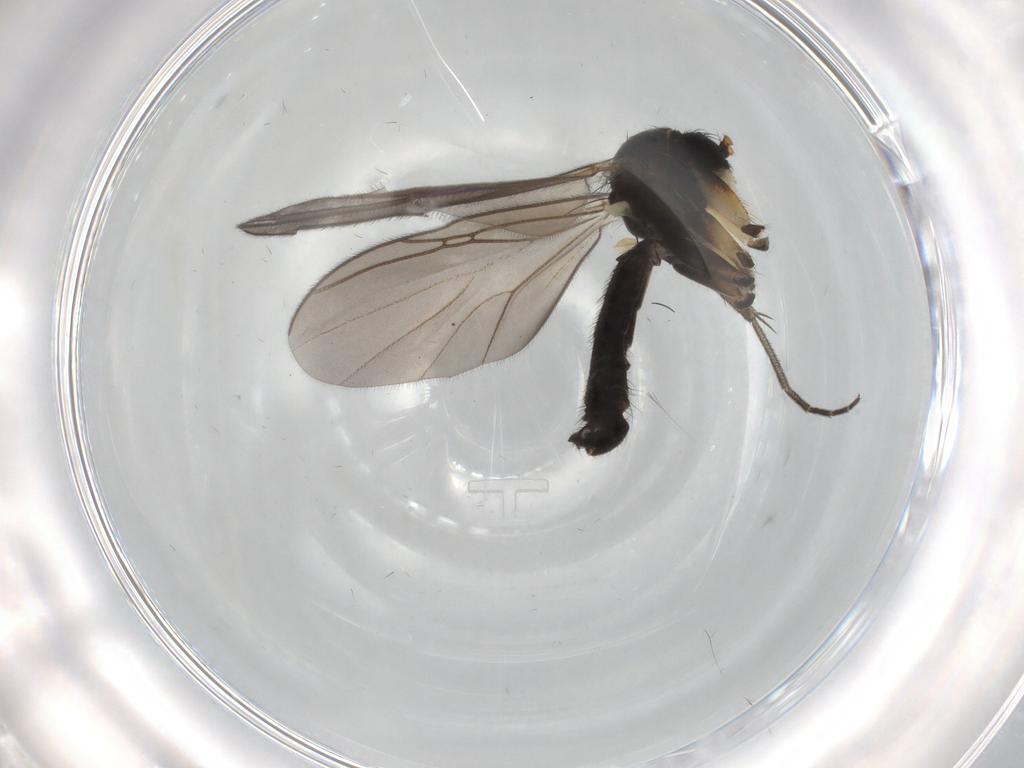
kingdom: Animalia
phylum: Arthropoda
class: Insecta
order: Diptera
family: Mycetophilidae
